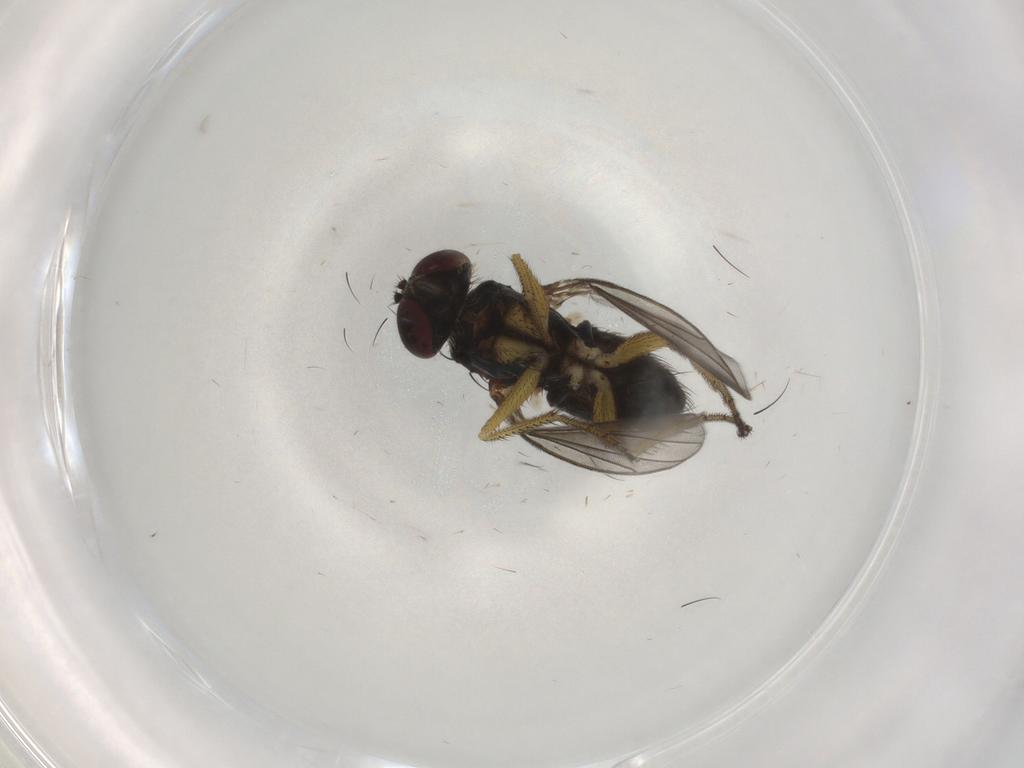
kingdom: Animalia
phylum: Arthropoda
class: Insecta
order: Diptera
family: Dolichopodidae
